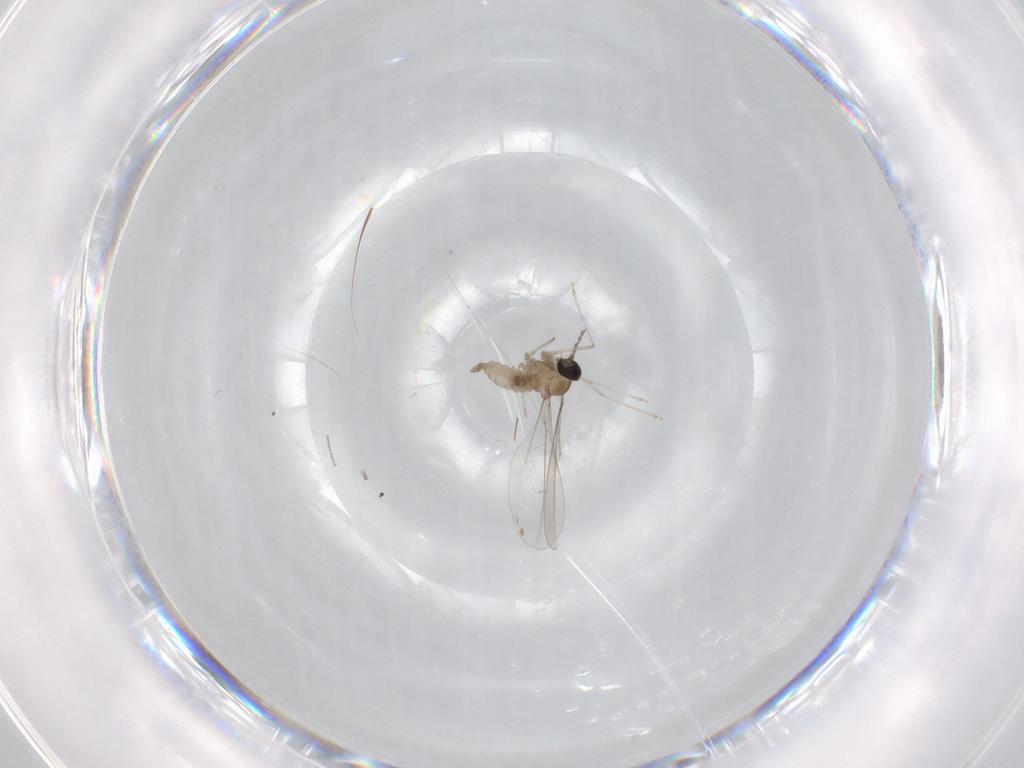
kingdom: Animalia
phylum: Arthropoda
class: Insecta
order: Diptera
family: Cecidomyiidae
